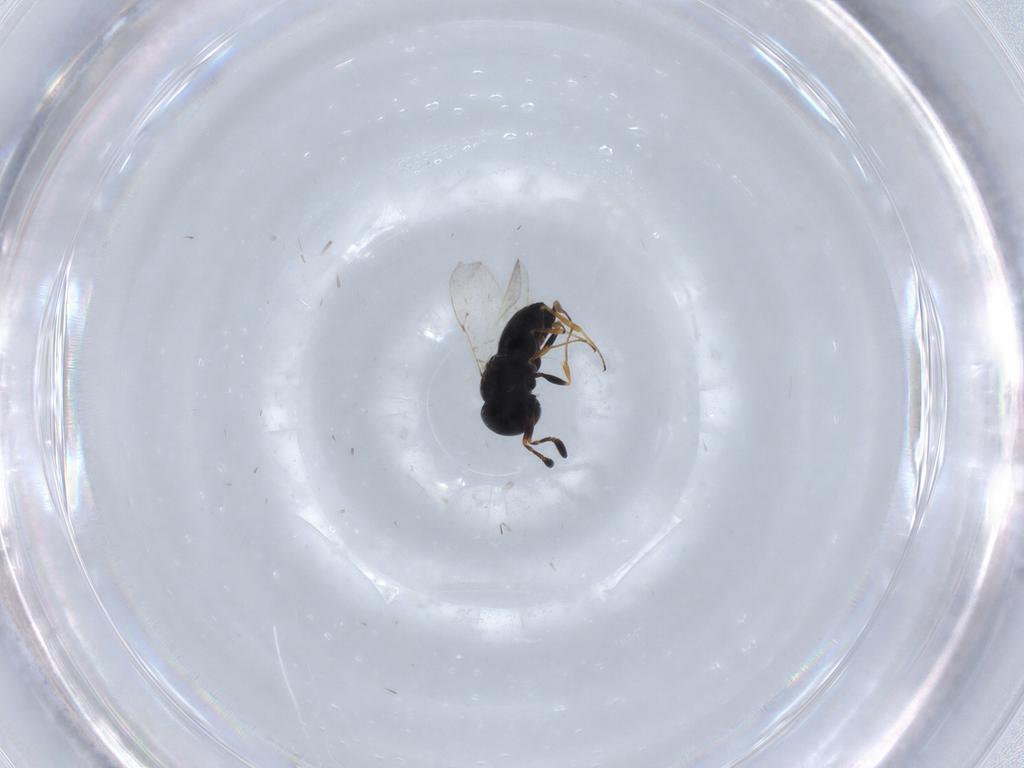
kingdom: Animalia
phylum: Arthropoda
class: Insecta
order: Coleoptera
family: Curculionidae
